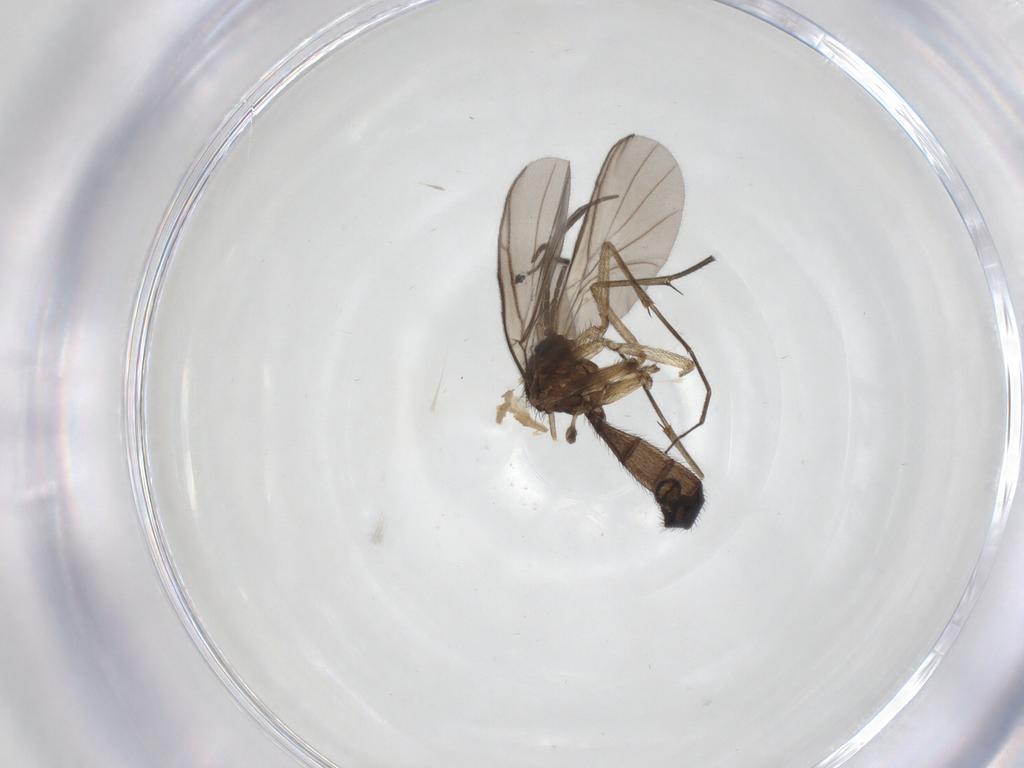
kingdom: Animalia
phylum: Arthropoda
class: Insecta
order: Diptera
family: Keroplatidae
